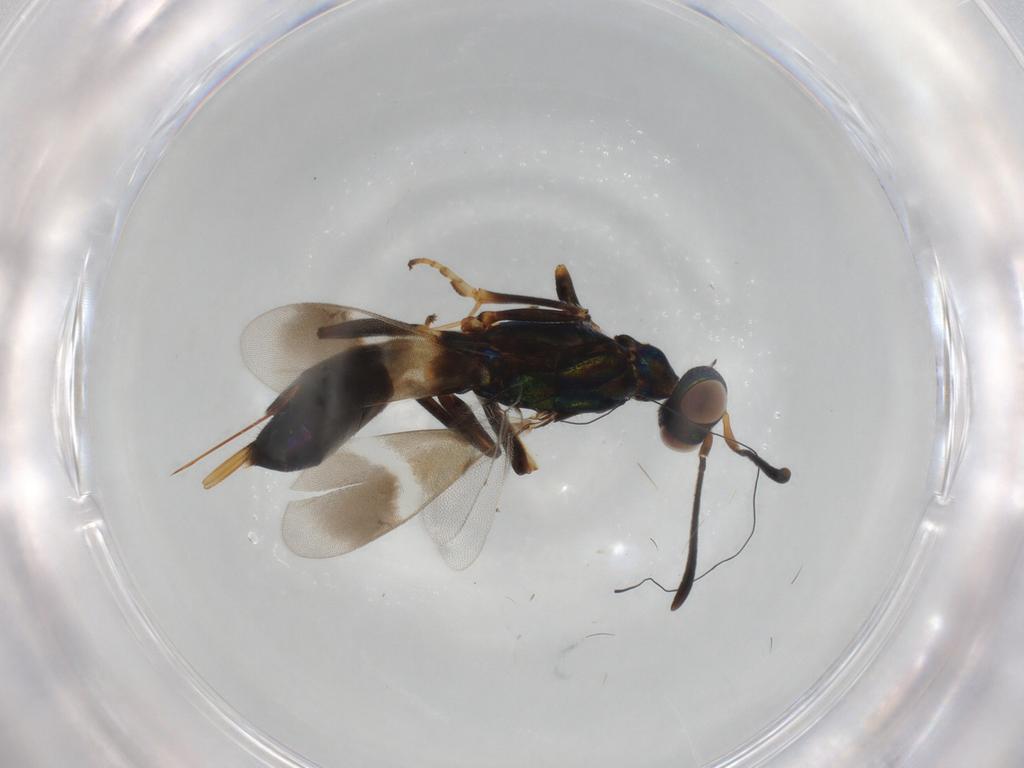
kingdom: Animalia
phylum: Arthropoda
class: Insecta
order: Hymenoptera
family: Eupelmidae
